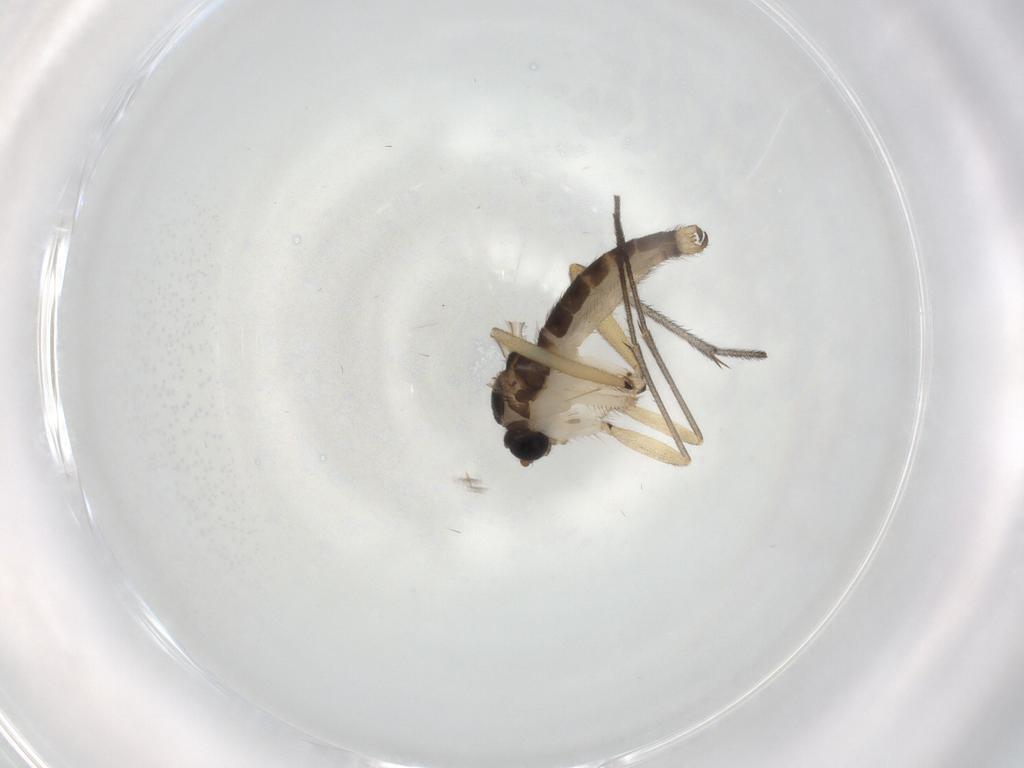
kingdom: Animalia
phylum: Arthropoda
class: Insecta
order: Diptera
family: Sciaridae
